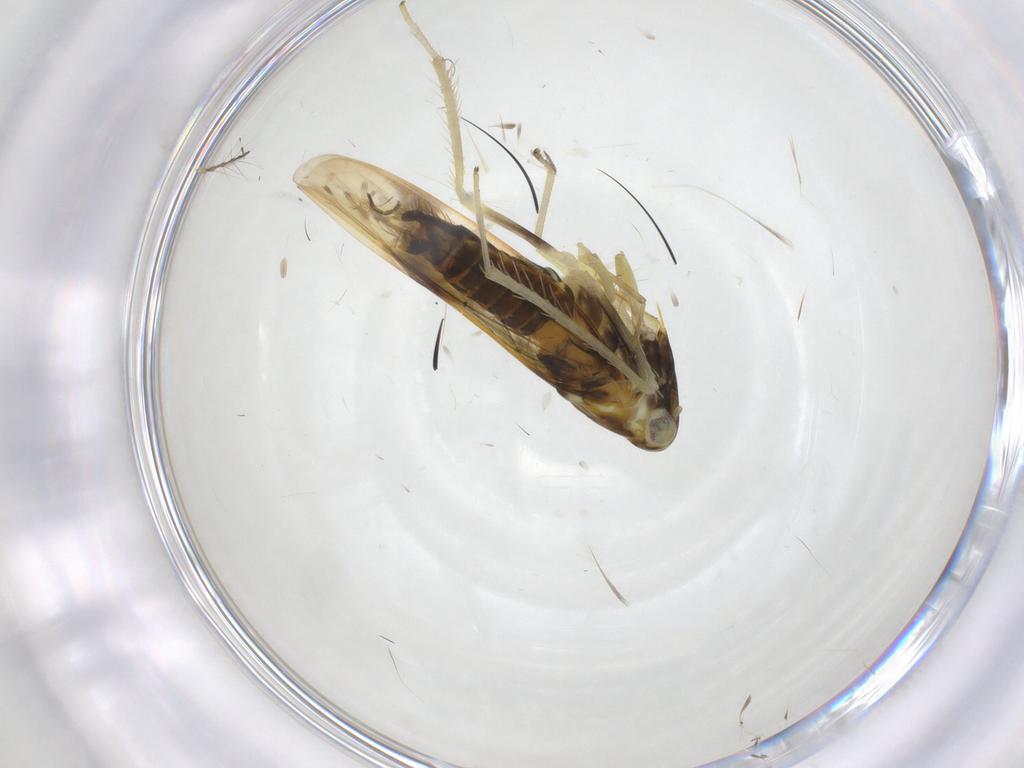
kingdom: Animalia
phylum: Arthropoda
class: Insecta
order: Hemiptera
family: Cicadellidae
